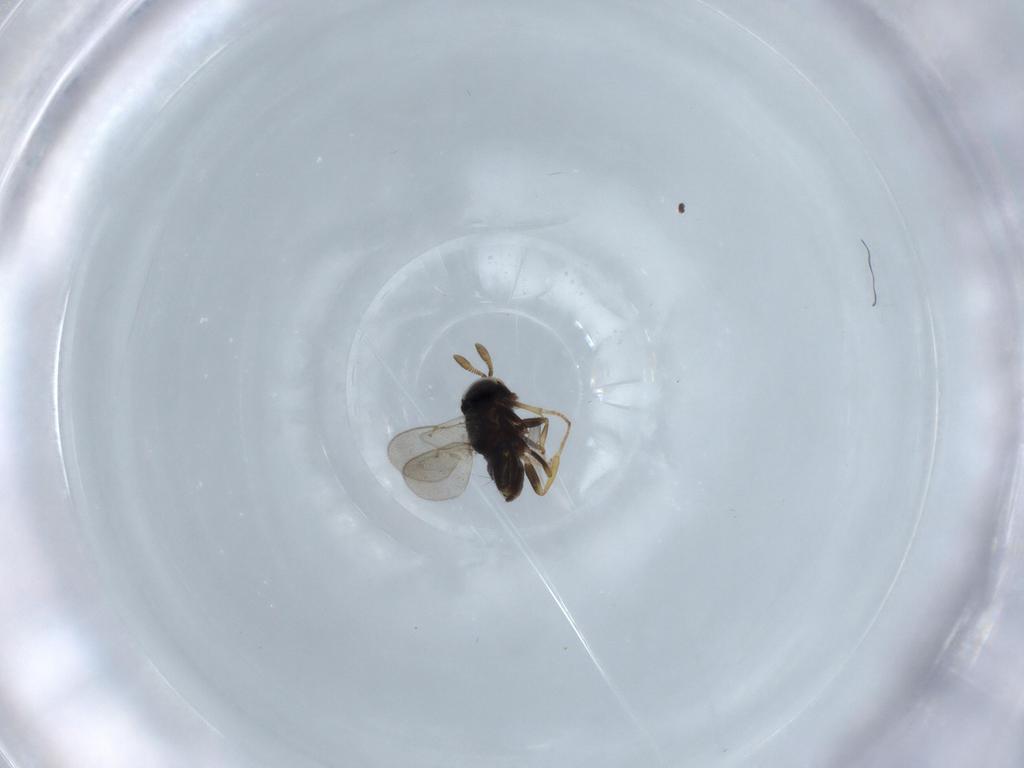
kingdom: Animalia
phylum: Arthropoda
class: Insecta
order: Hymenoptera
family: Encyrtidae
